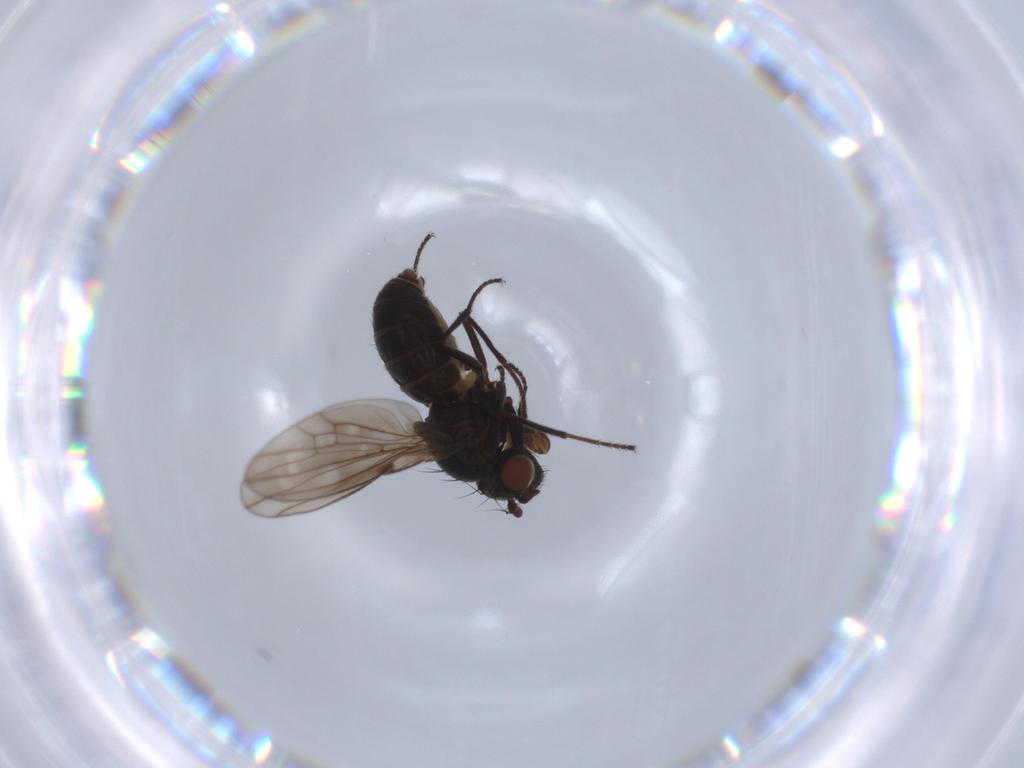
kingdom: Animalia
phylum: Arthropoda
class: Insecta
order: Diptera
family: Ephydridae
